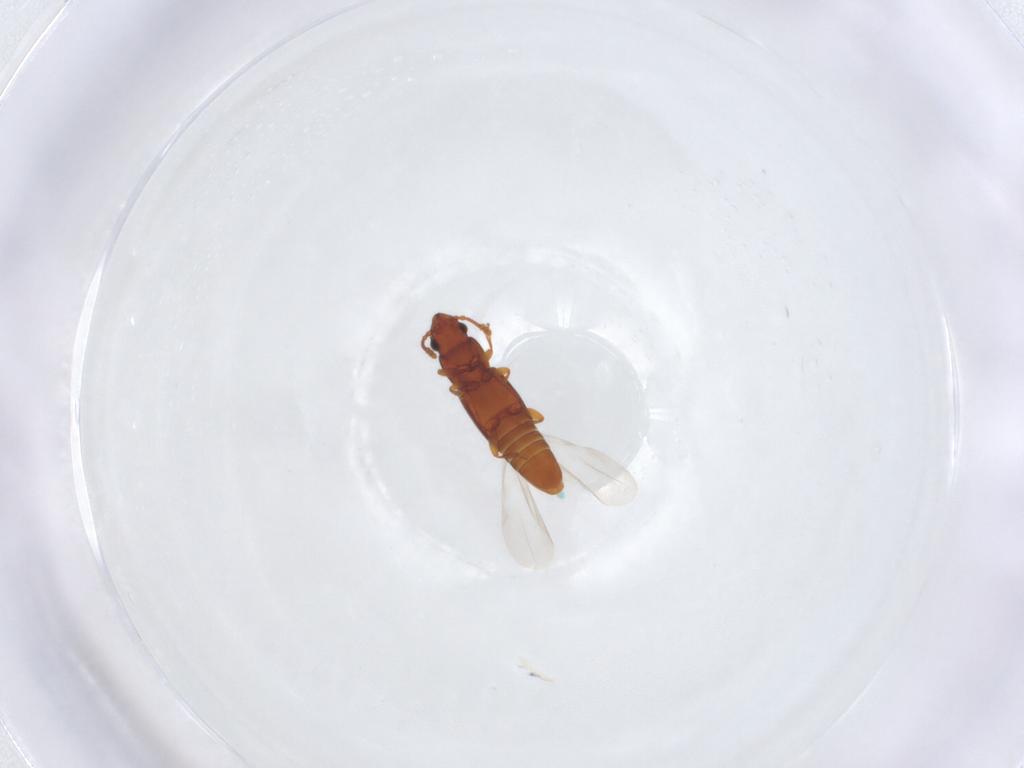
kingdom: Animalia
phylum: Arthropoda
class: Insecta
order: Coleoptera
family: Smicripidae
